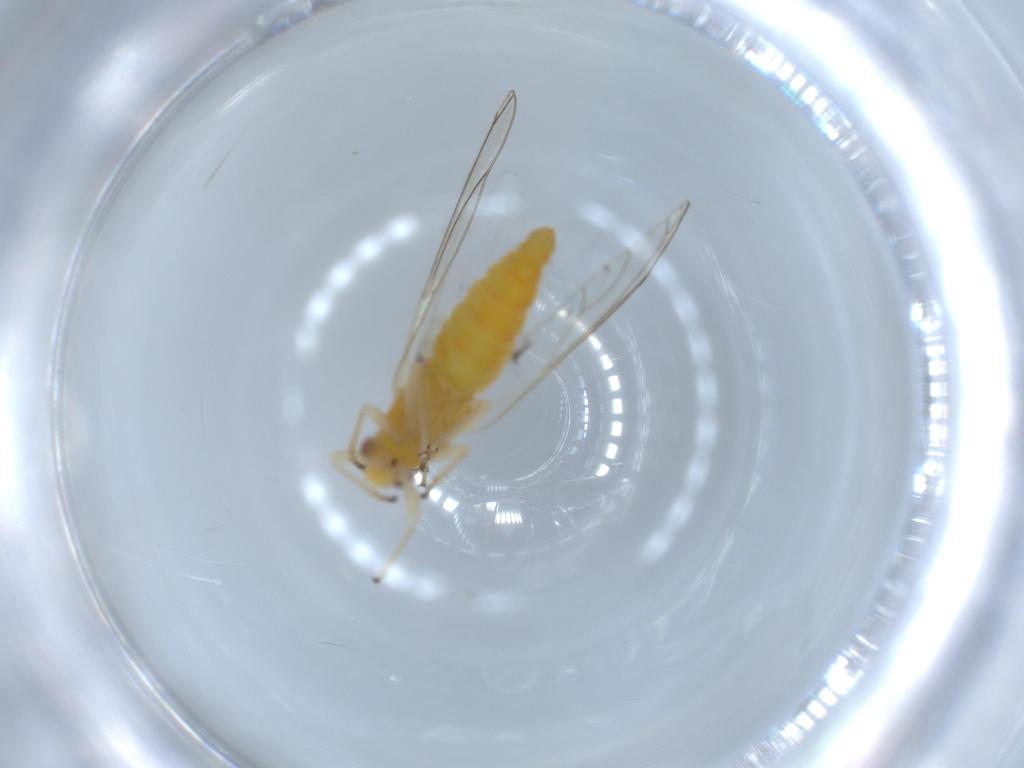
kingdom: Animalia
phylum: Arthropoda
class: Insecta
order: Hemiptera
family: Triozidae
